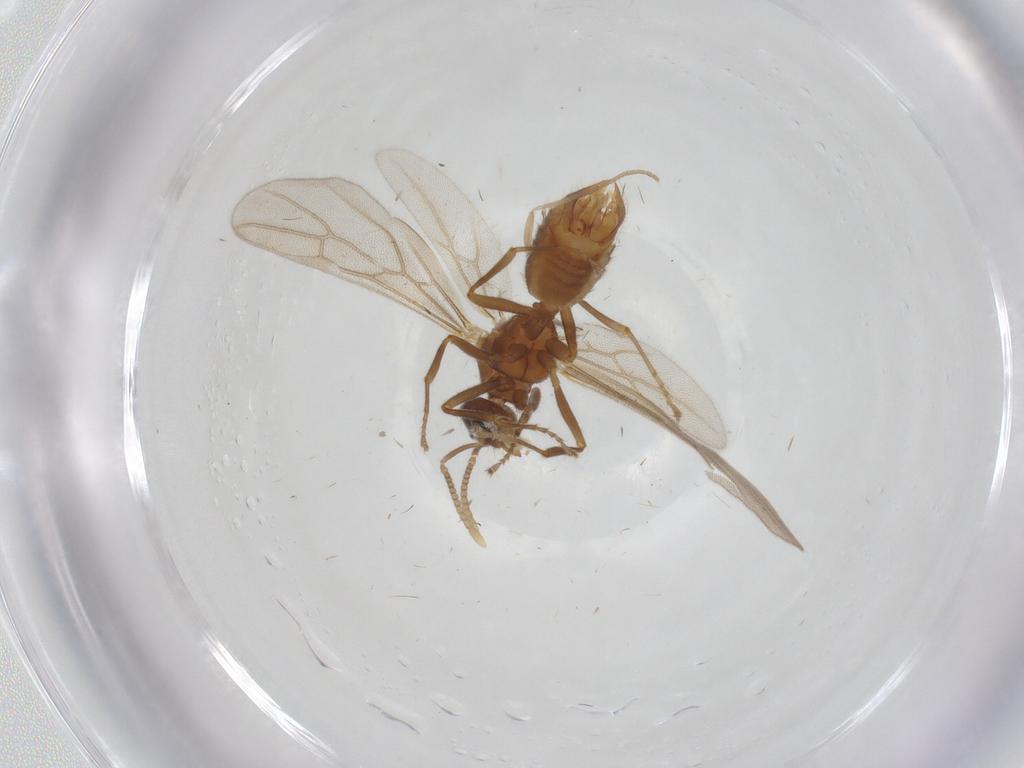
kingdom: Animalia
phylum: Arthropoda
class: Insecta
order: Hymenoptera
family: Formicidae
